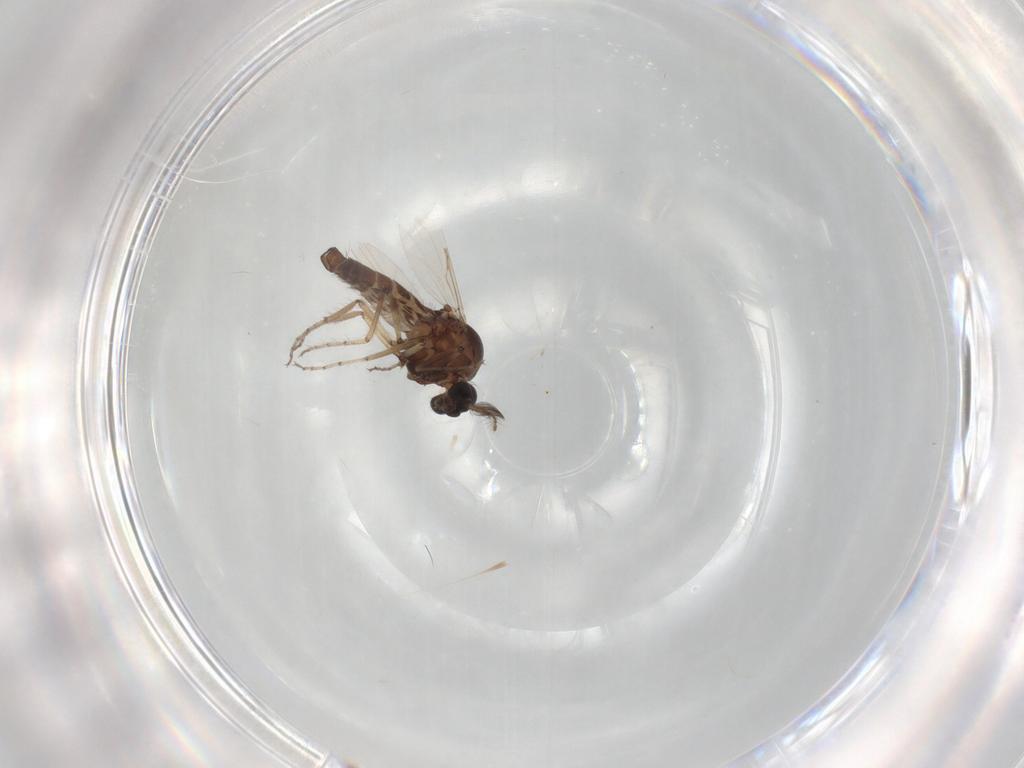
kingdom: Animalia
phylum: Arthropoda
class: Insecta
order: Diptera
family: Ceratopogonidae
